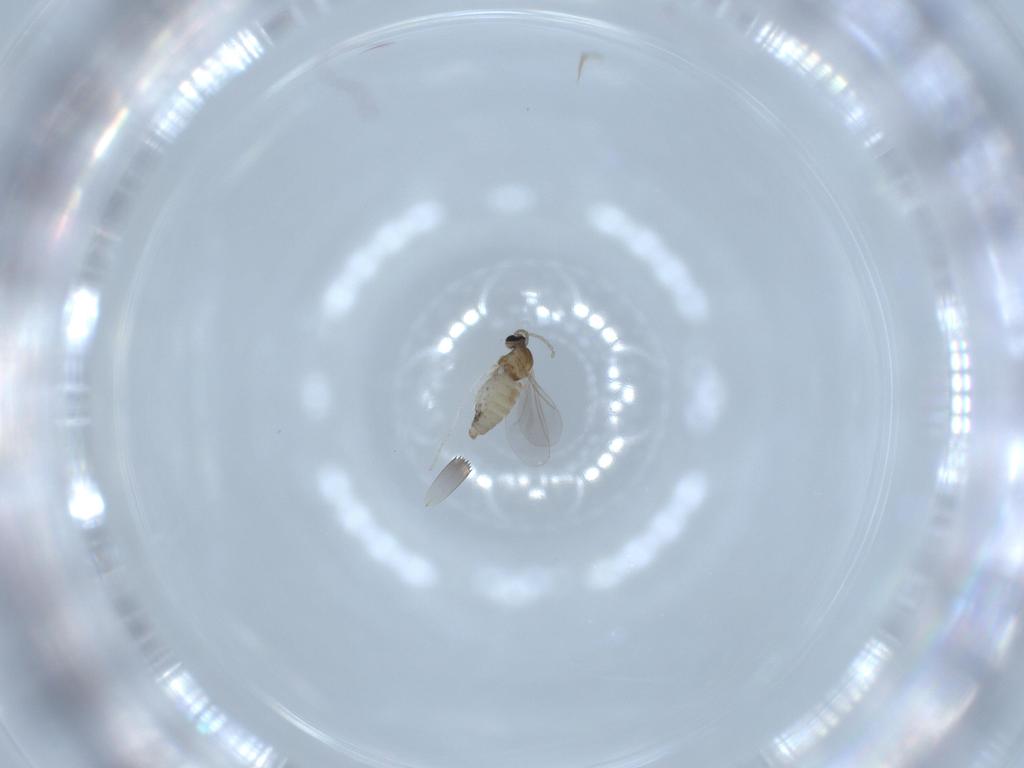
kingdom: Animalia
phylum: Arthropoda
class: Insecta
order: Diptera
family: Cecidomyiidae
